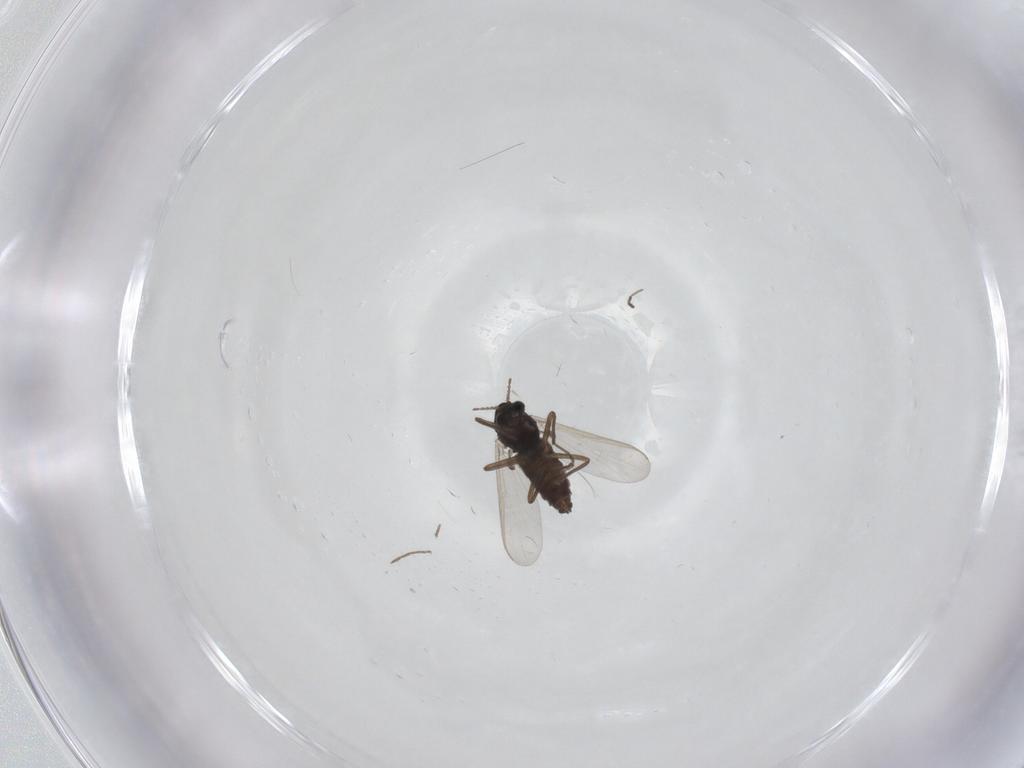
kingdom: Animalia
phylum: Arthropoda
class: Insecta
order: Diptera
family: Chironomidae
